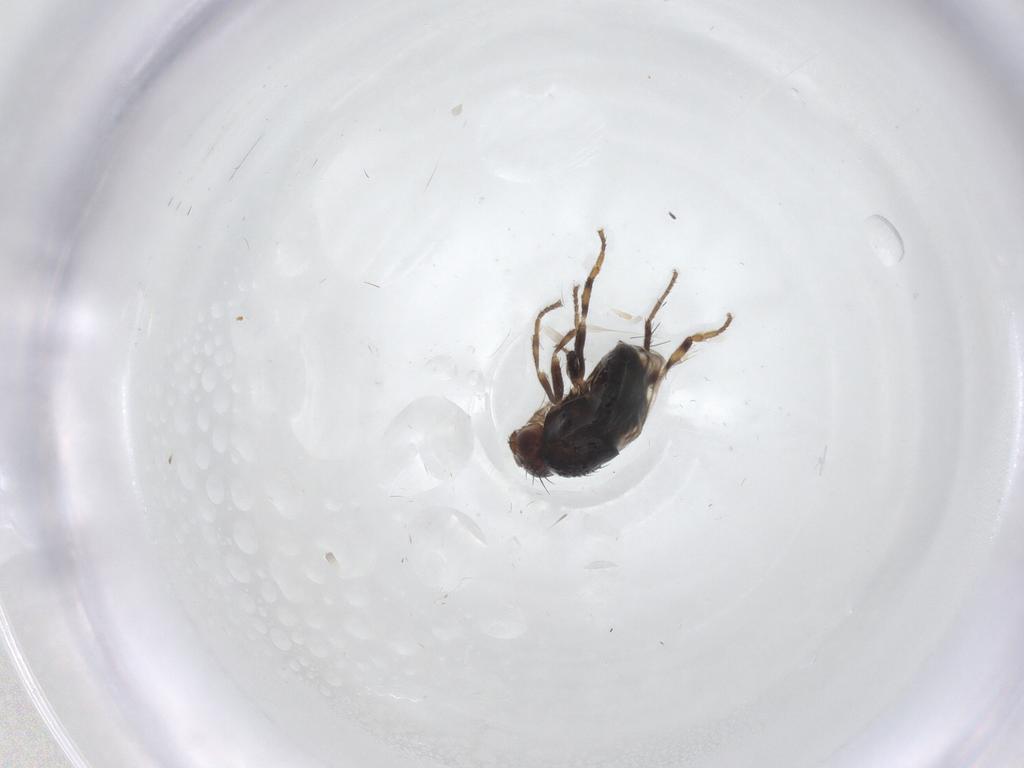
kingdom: Animalia
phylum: Arthropoda
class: Insecta
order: Diptera
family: Sphaeroceridae
